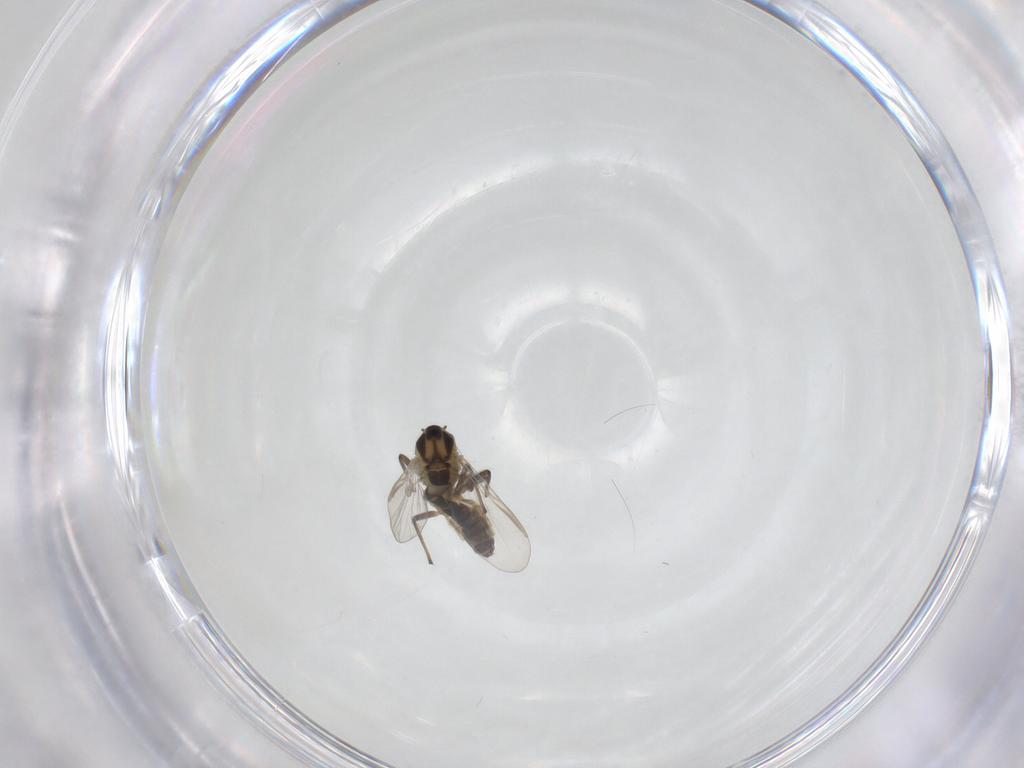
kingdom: Animalia
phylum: Arthropoda
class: Insecta
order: Diptera
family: Chironomidae
